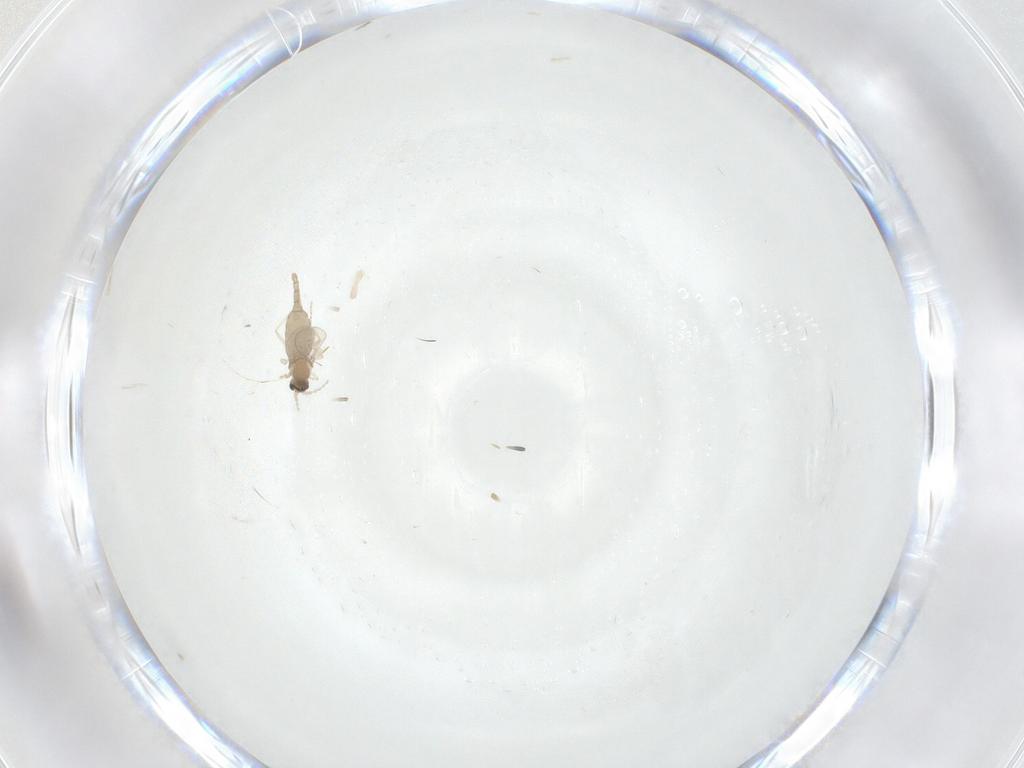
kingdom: Animalia
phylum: Arthropoda
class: Insecta
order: Diptera
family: Cecidomyiidae
